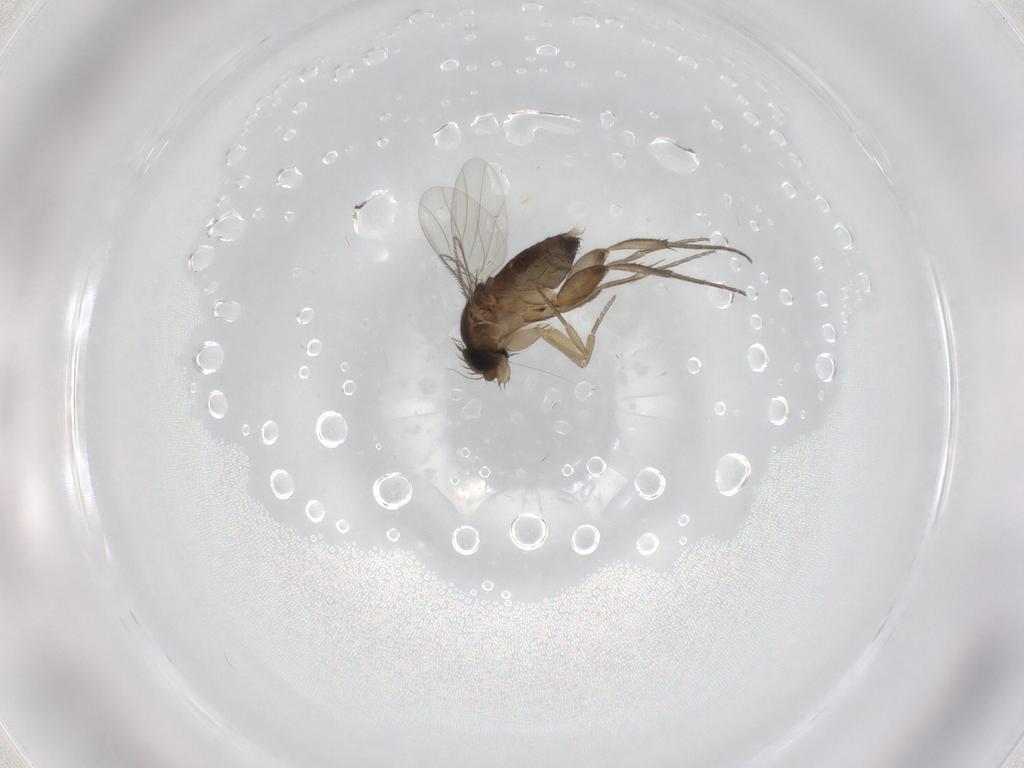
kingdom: Animalia
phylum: Arthropoda
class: Insecta
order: Diptera
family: Phoridae
